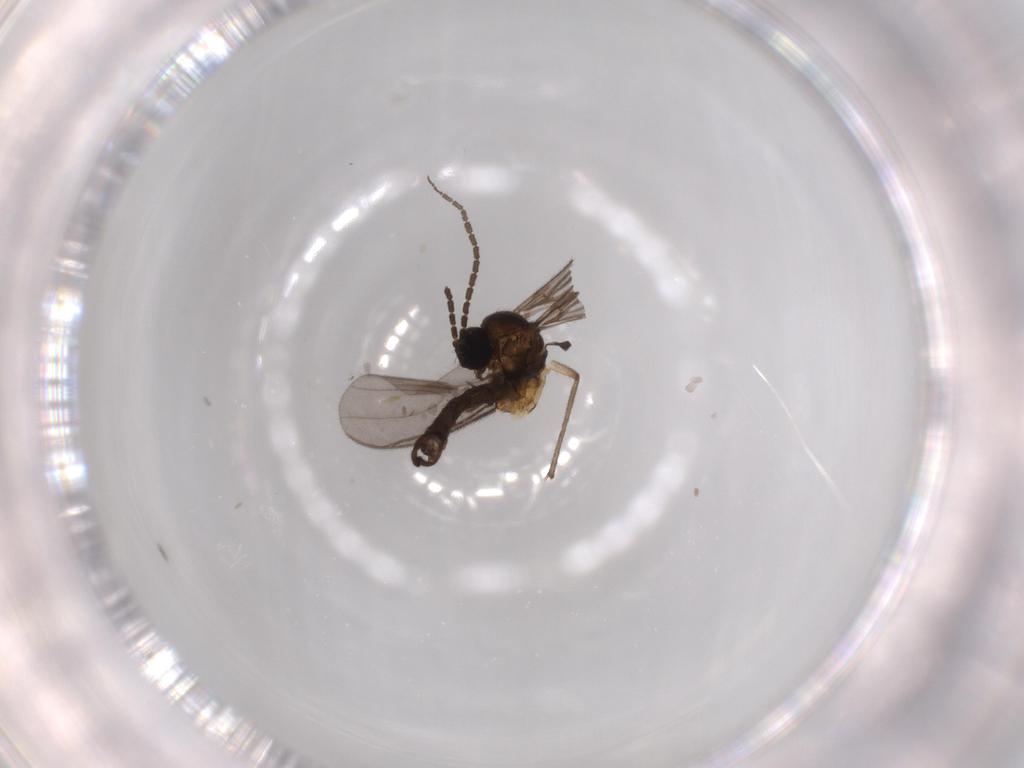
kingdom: Animalia
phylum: Arthropoda
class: Insecta
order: Diptera
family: Sciaridae
